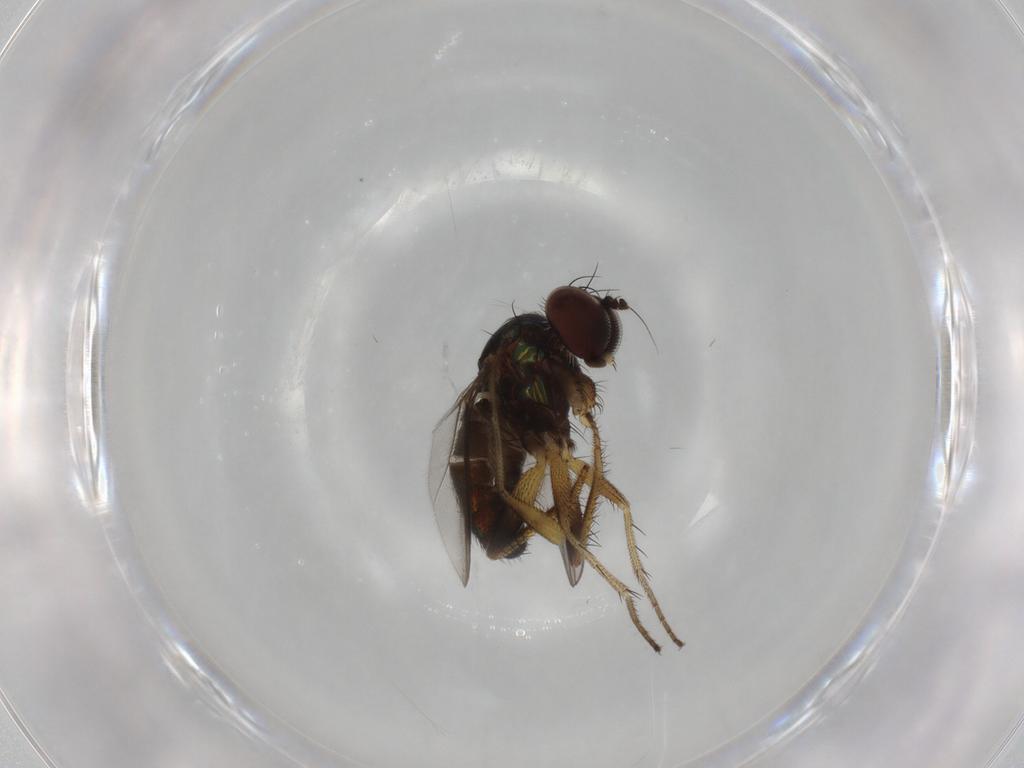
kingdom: Animalia
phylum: Arthropoda
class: Insecta
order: Diptera
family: Dolichopodidae
